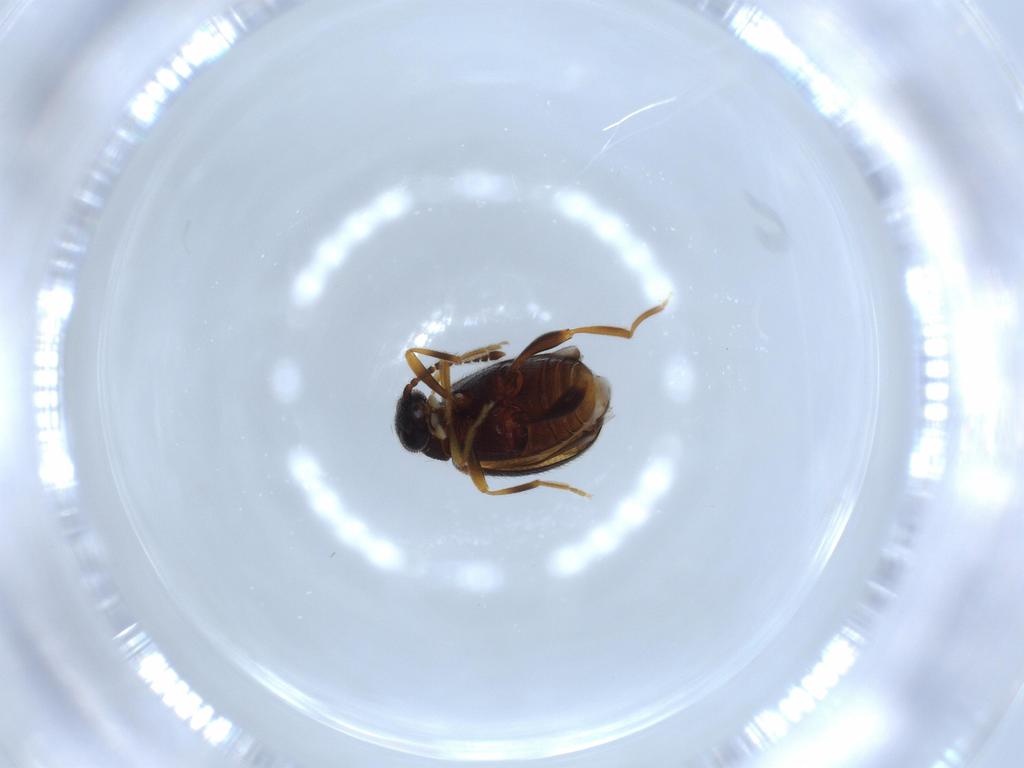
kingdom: Animalia
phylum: Arthropoda
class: Insecta
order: Coleoptera
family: Aderidae
